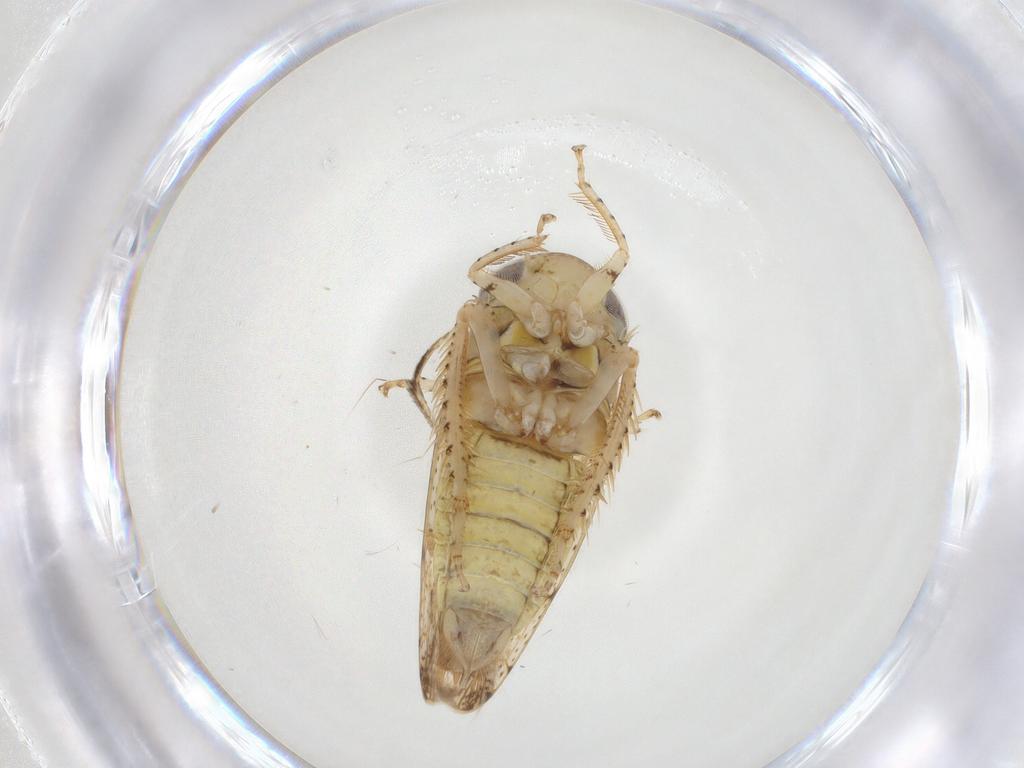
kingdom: Animalia
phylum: Arthropoda
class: Insecta
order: Hemiptera
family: Cicadellidae
